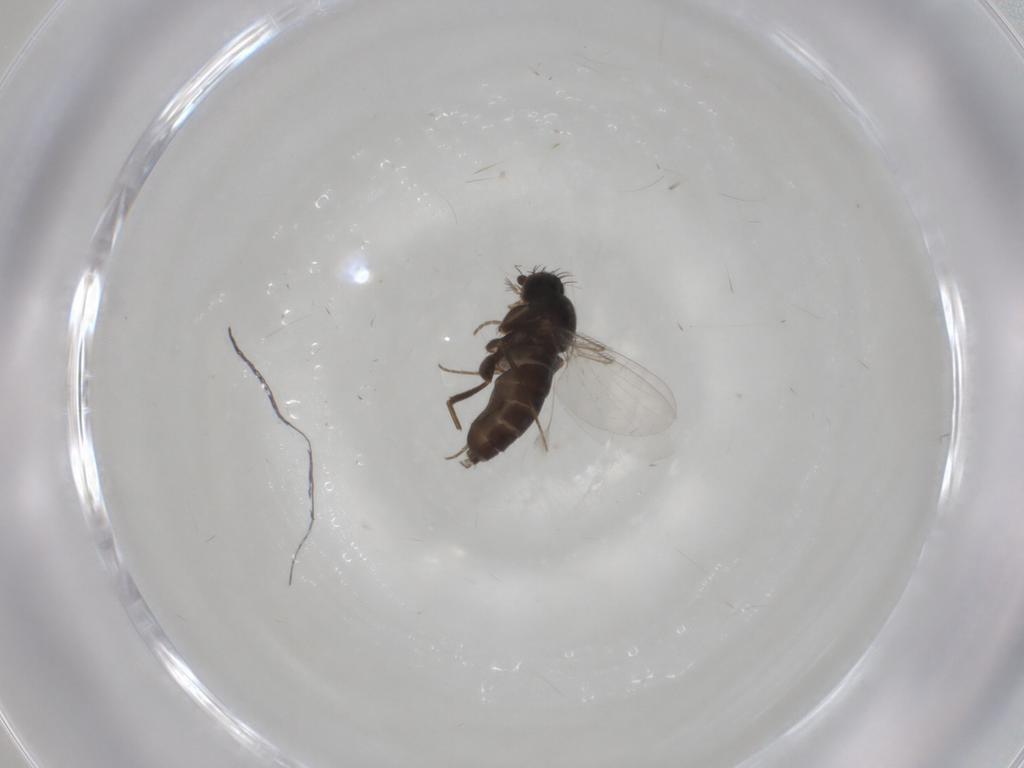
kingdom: Animalia
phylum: Arthropoda
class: Insecta
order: Diptera
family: Phoridae
